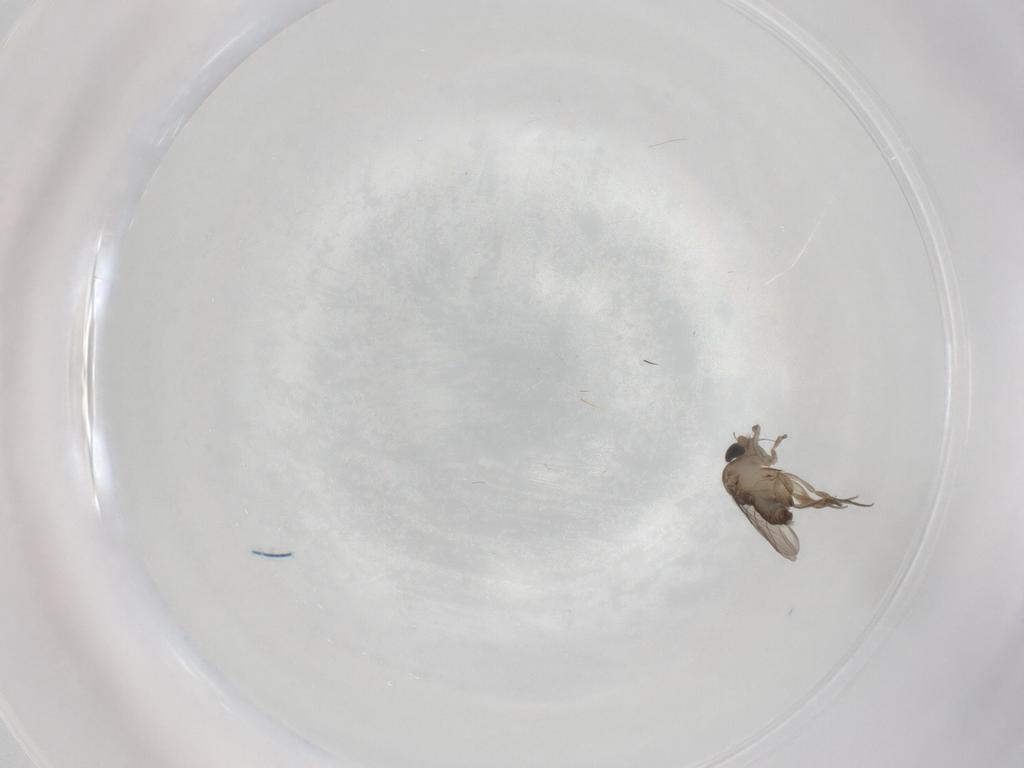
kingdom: Animalia
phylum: Arthropoda
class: Insecta
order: Diptera
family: Phoridae
